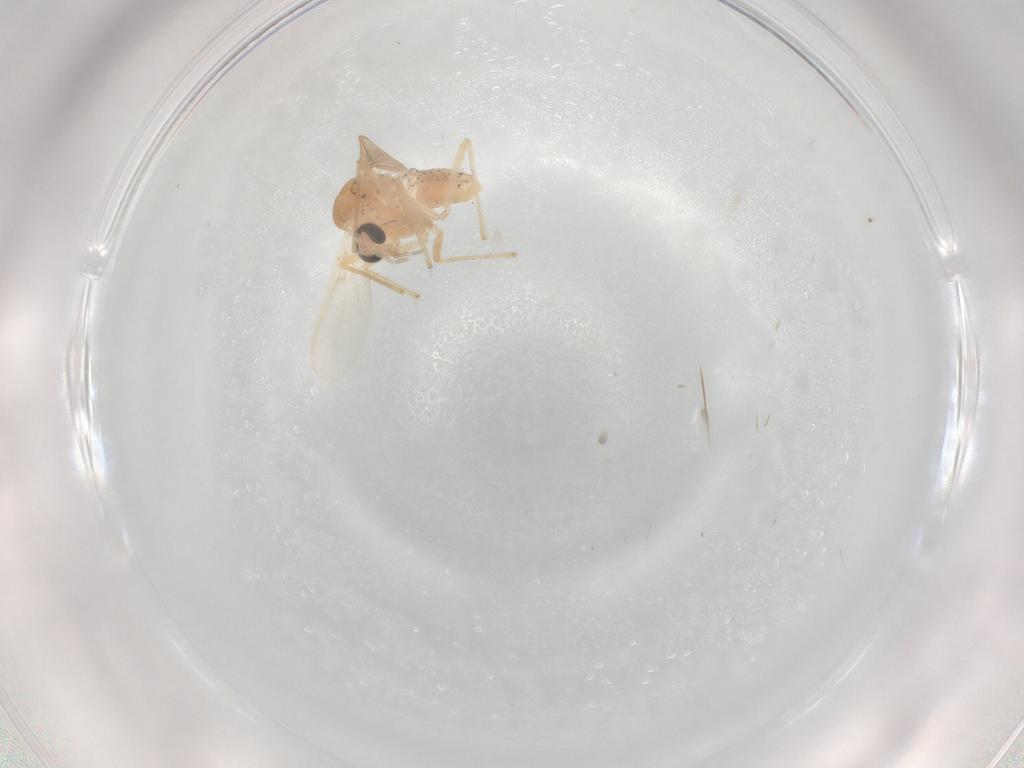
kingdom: Animalia
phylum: Arthropoda
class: Insecta
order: Diptera
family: Chironomidae
